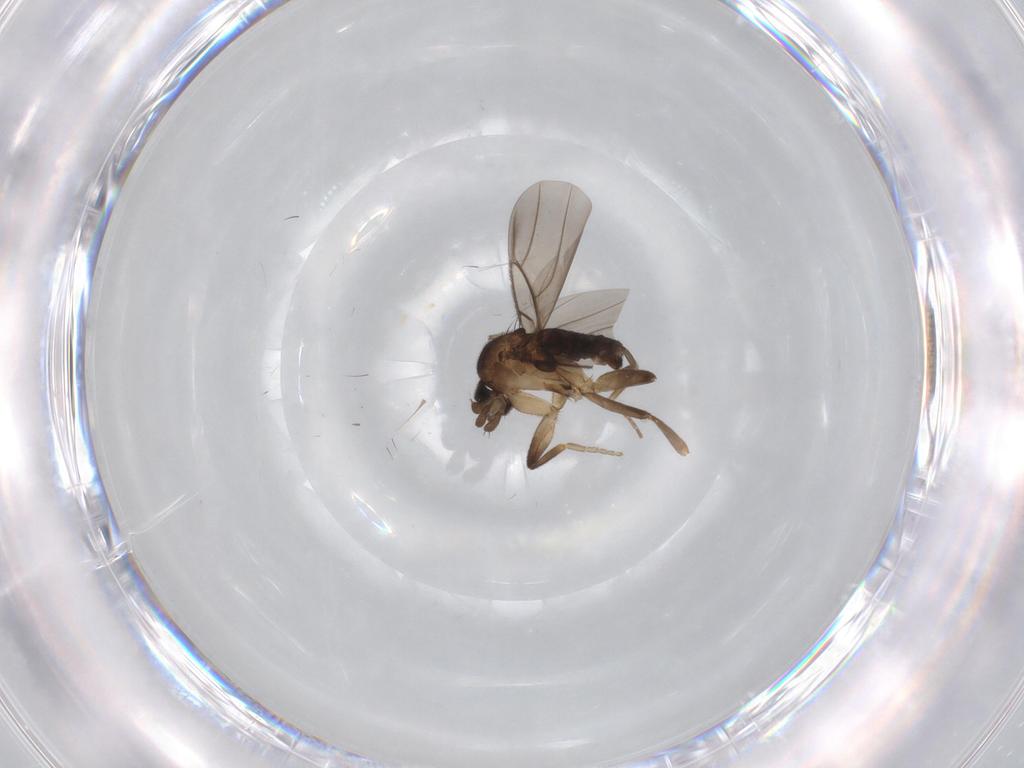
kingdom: Animalia
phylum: Arthropoda
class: Insecta
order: Diptera
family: Phoridae
